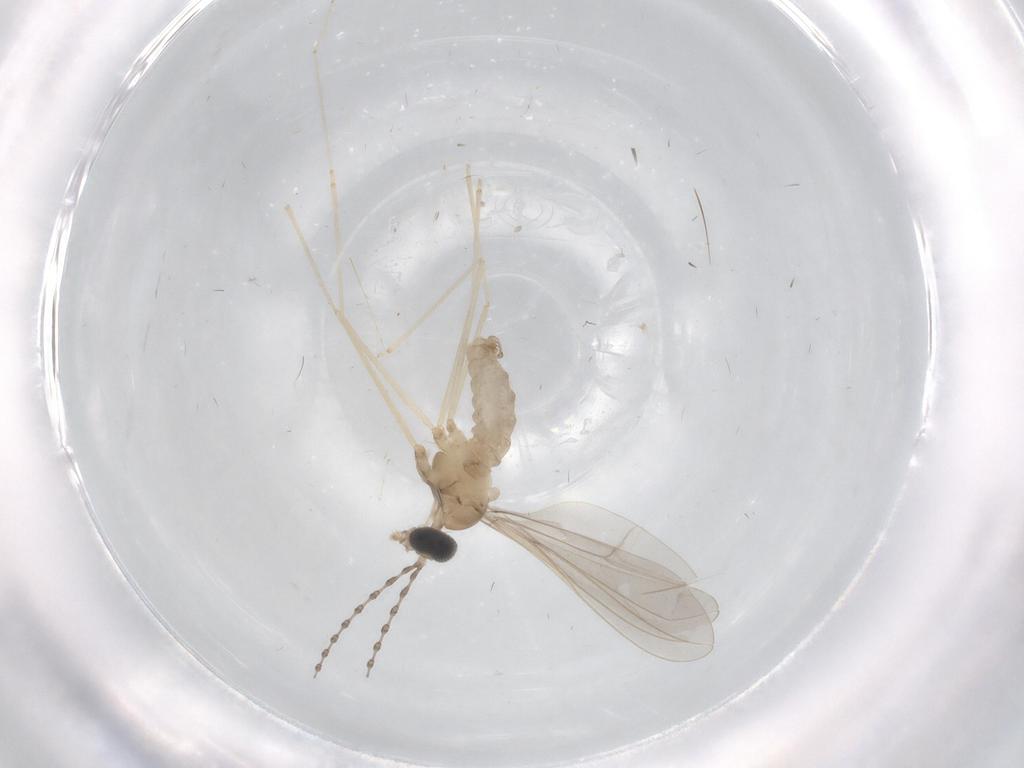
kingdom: Animalia
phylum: Arthropoda
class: Insecta
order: Diptera
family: Cecidomyiidae
